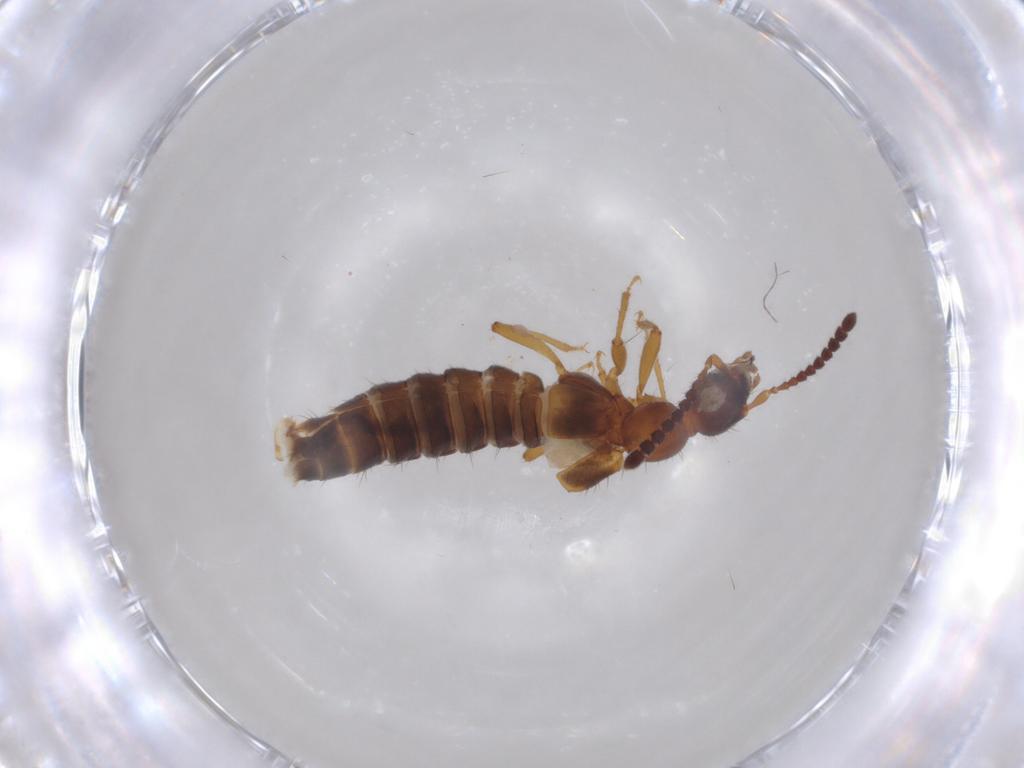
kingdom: Animalia
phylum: Arthropoda
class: Insecta
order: Coleoptera
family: Staphylinidae
